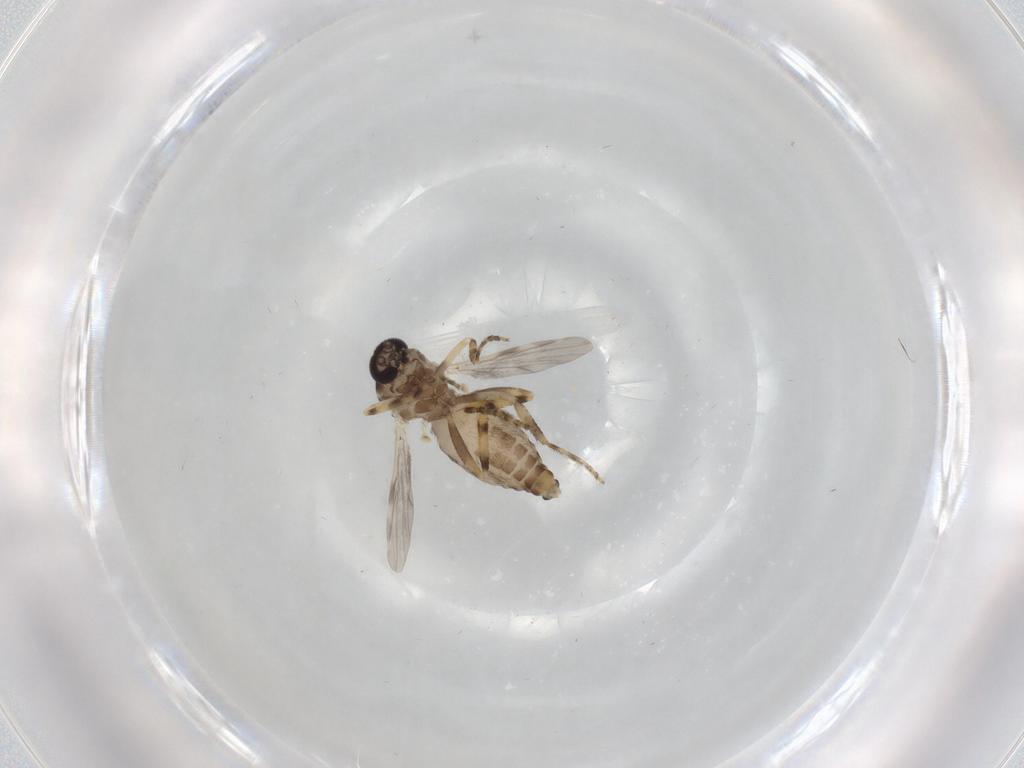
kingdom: Animalia
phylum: Arthropoda
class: Insecta
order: Diptera
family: Ceratopogonidae
